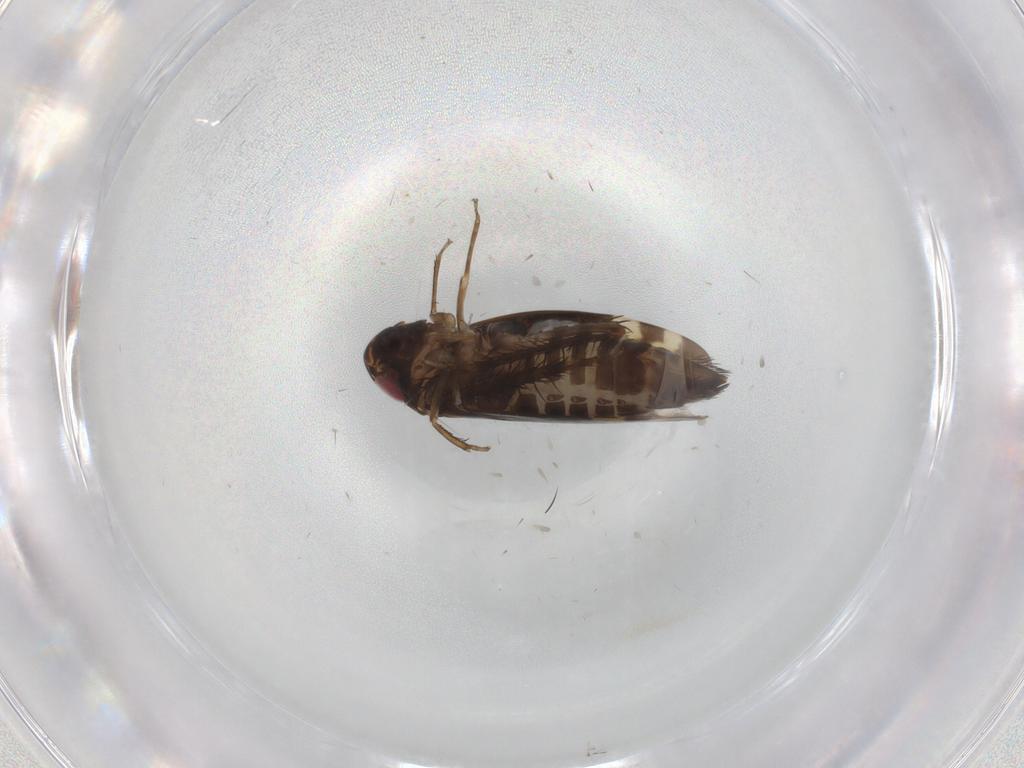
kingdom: Animalia
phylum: Arthropoda
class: Insecta
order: Hemiptera
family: Cicadellidae
